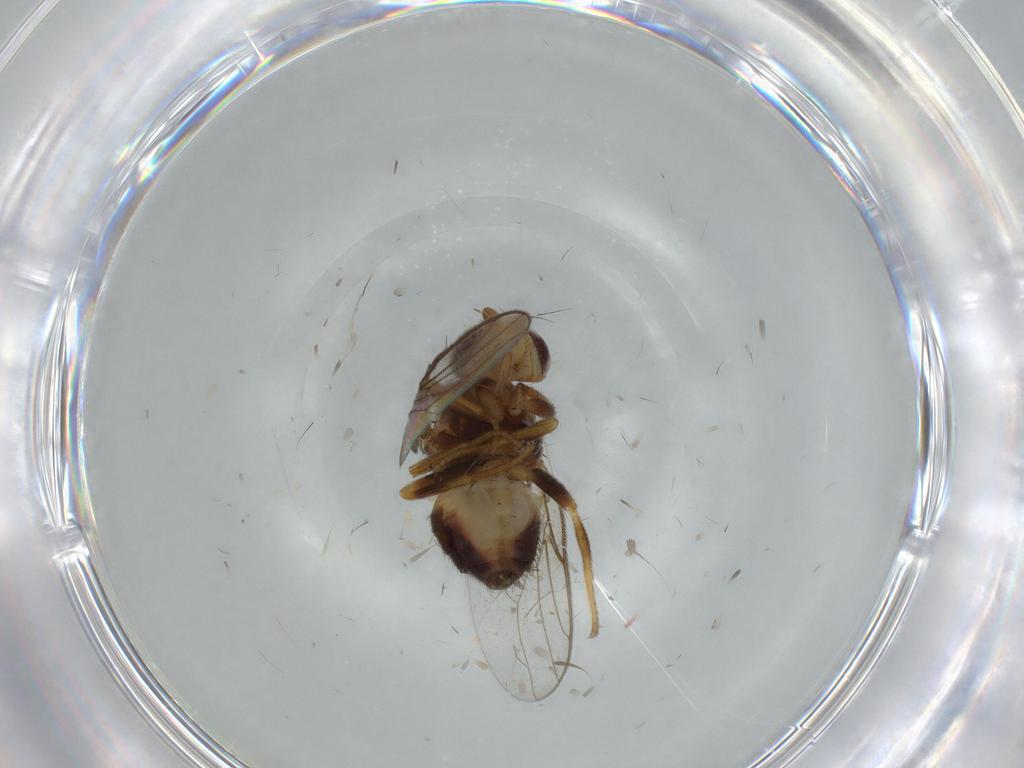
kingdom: Animalia
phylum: Arthropoda
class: Insecta
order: Diptera
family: Chloropidae
